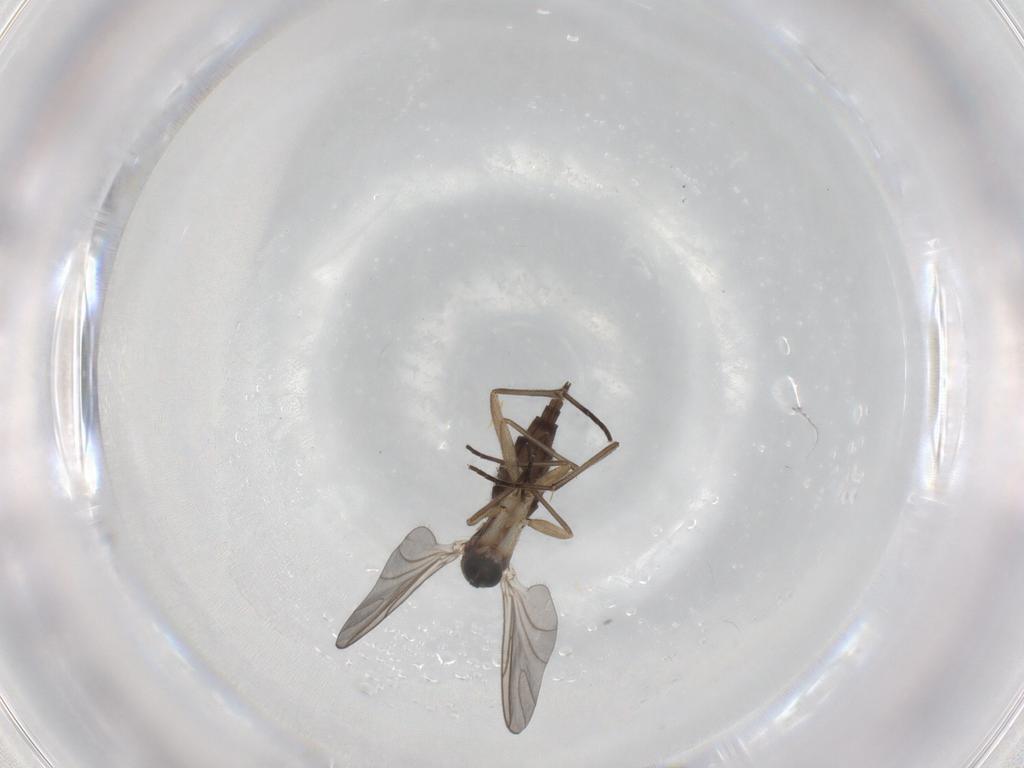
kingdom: Animalia
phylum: Arthropoda
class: Insecta
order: Diptera
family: Sciaridae
